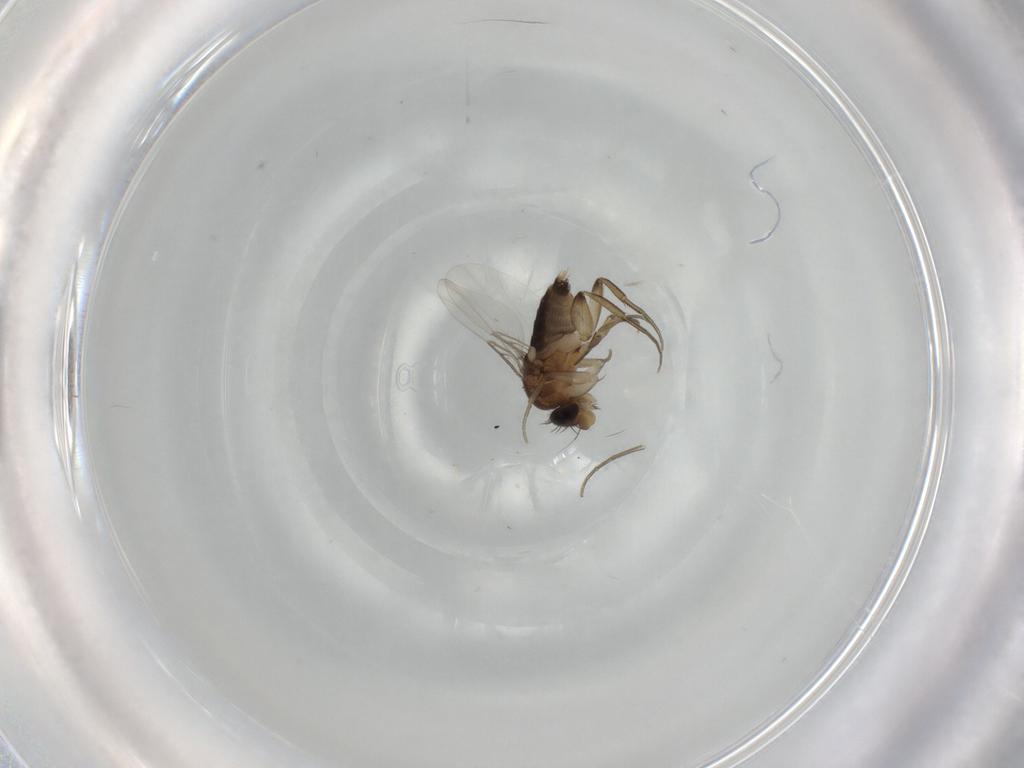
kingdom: Animalia
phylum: Arthropoda
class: Insecta
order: Diptera
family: Phoridae
